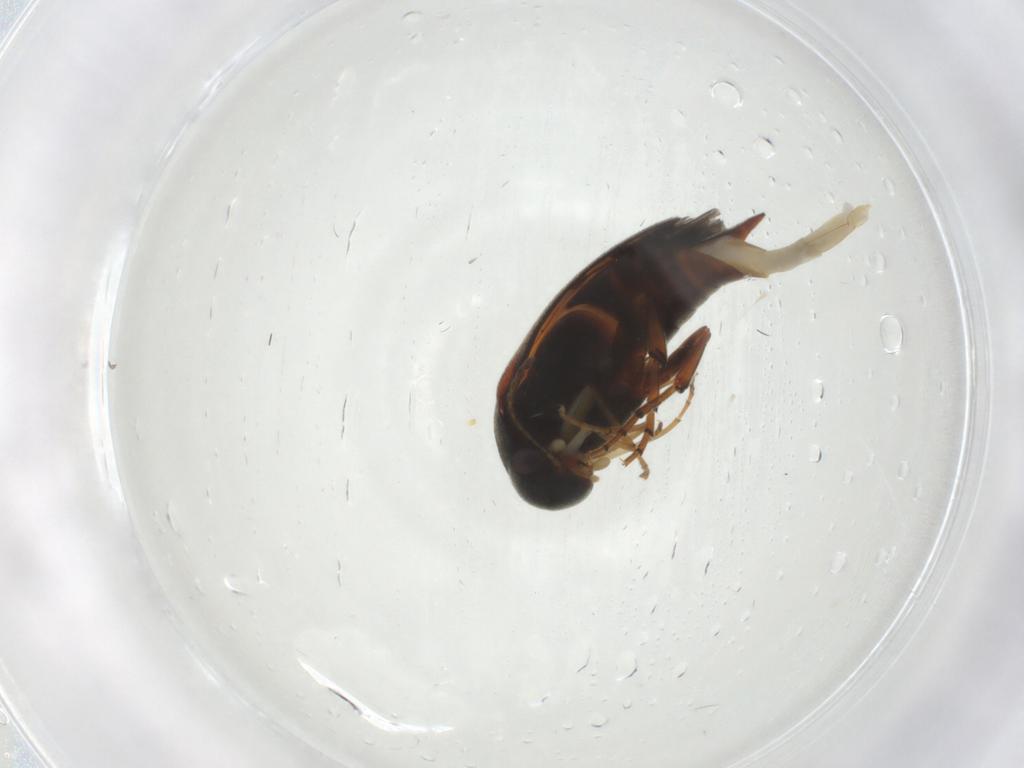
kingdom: Animalia
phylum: Arthropoda
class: Insecta
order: Coleoptera
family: Mordellidae
